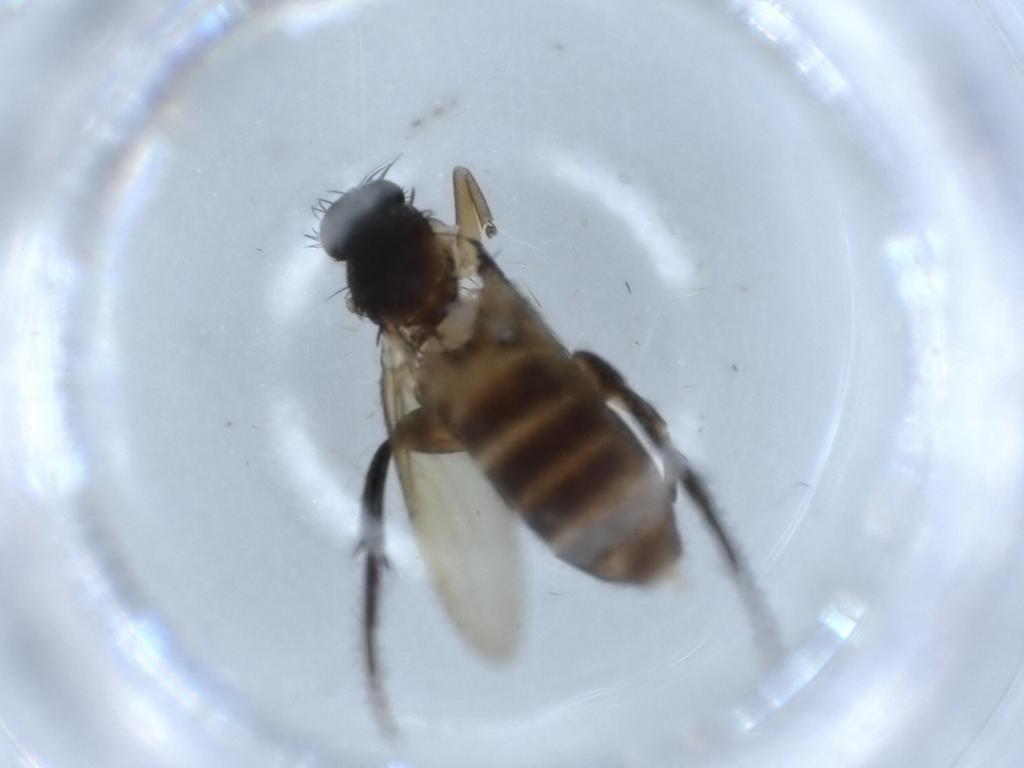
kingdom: Animalia
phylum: Arthropoda
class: Insecta
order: Diptera
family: Phoridae
